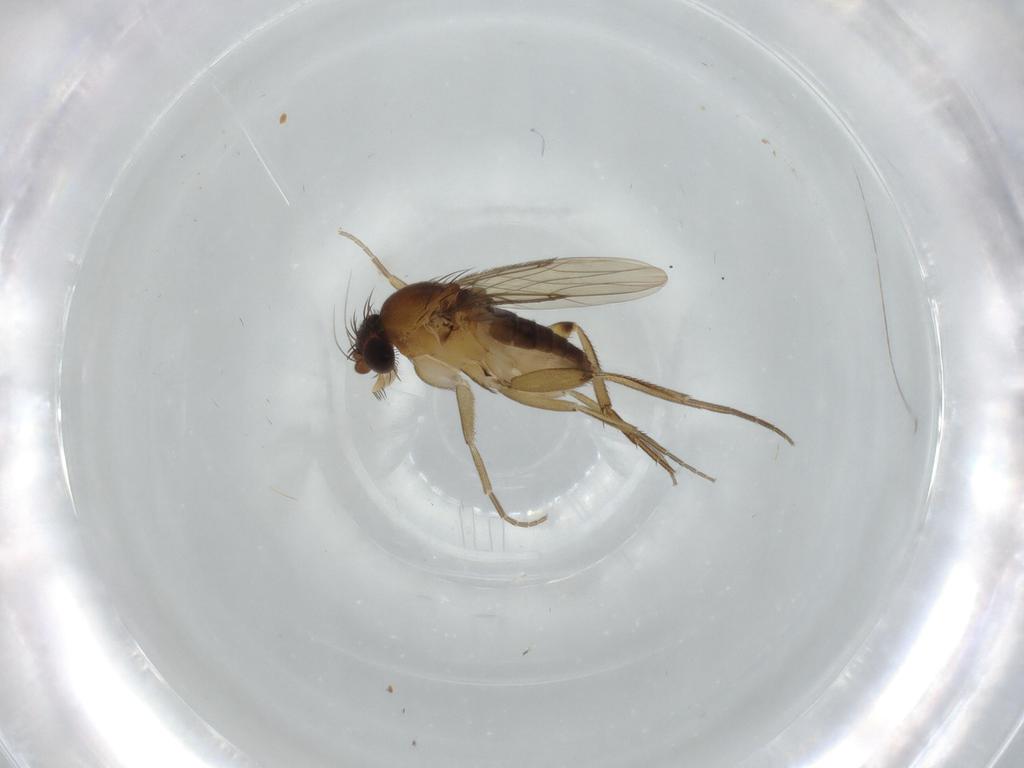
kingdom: Animalia
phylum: Arthropoda
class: Insecta
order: Diptera
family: Phoridae
